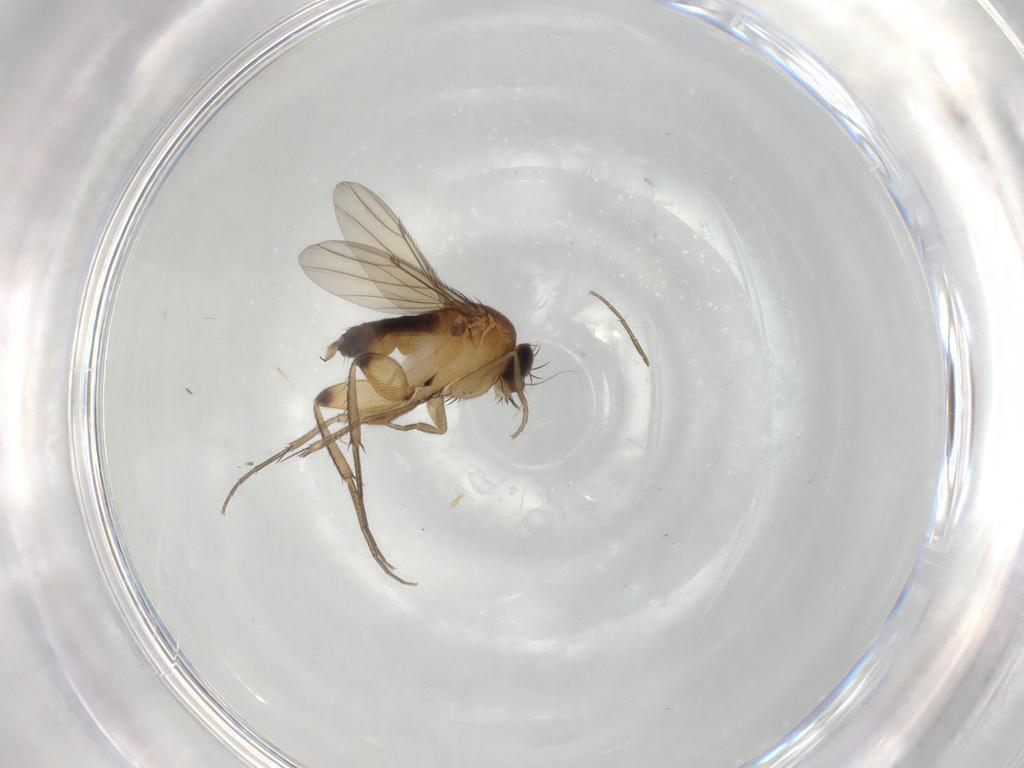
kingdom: Animalia
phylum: Arthropoda
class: Insecta
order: Diptera
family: Phoridae
